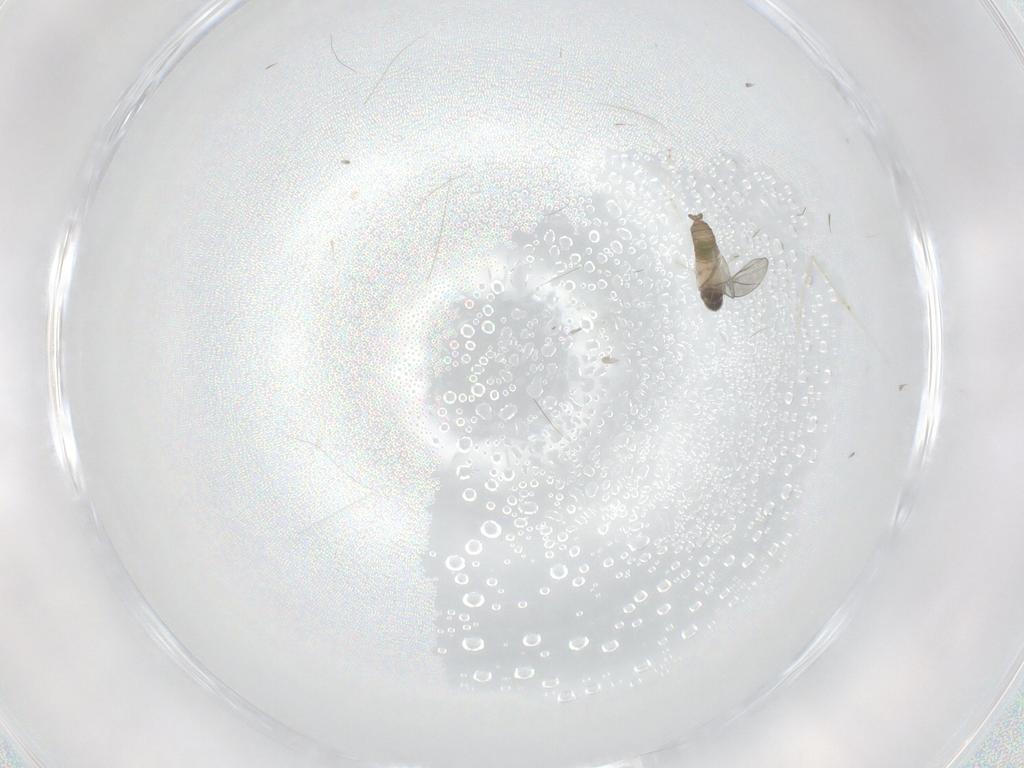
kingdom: Animalia
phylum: Arthropoda
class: Insecta
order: Diptera
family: Cecidomyiidae
